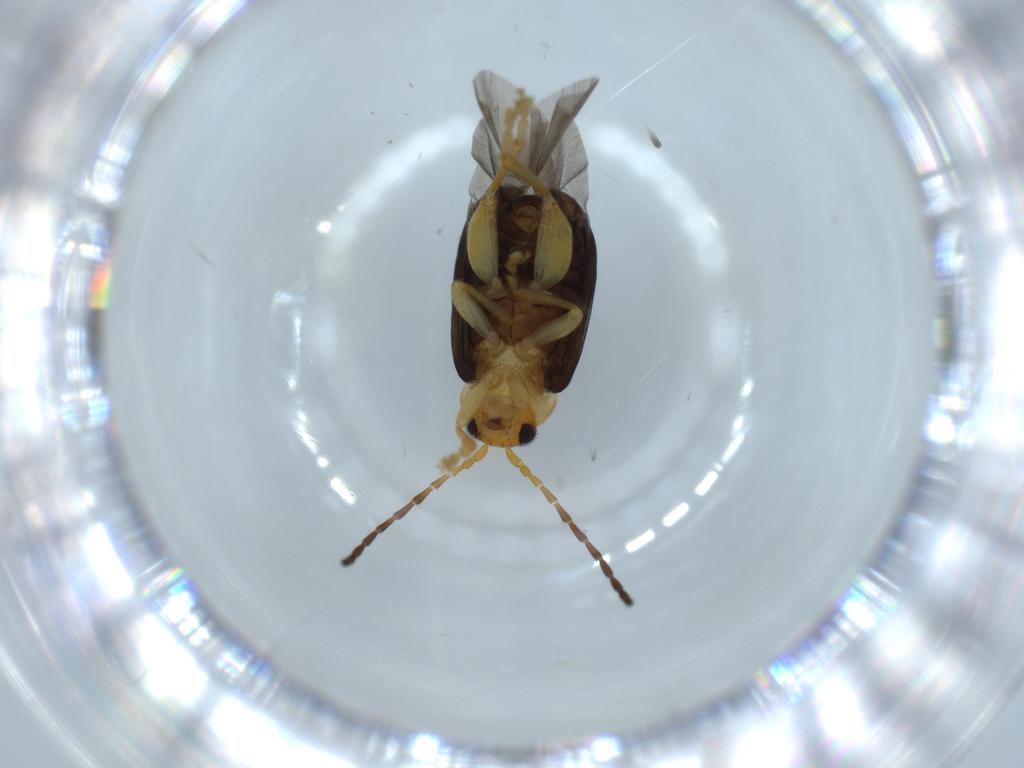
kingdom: Animalia
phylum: Arthropoda
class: Insecta
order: Coleoptera
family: Chrysomelidae
